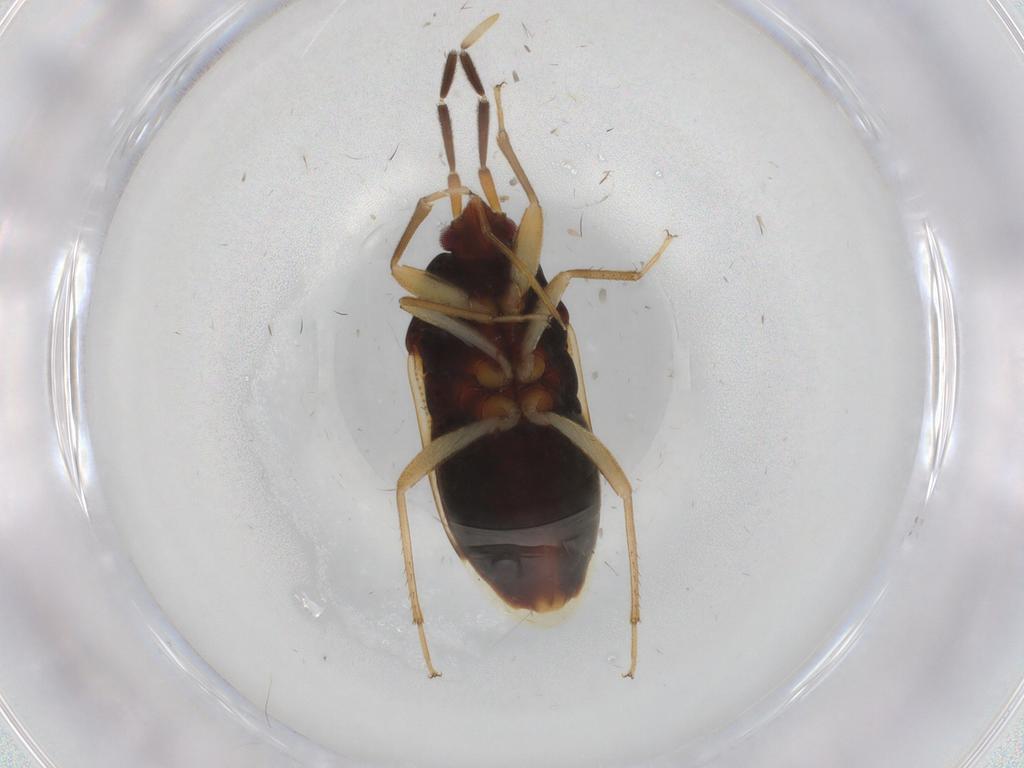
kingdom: Animalia
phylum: Arthropoda
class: Insecta
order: Hemiptera
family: Rhyparochromidae
